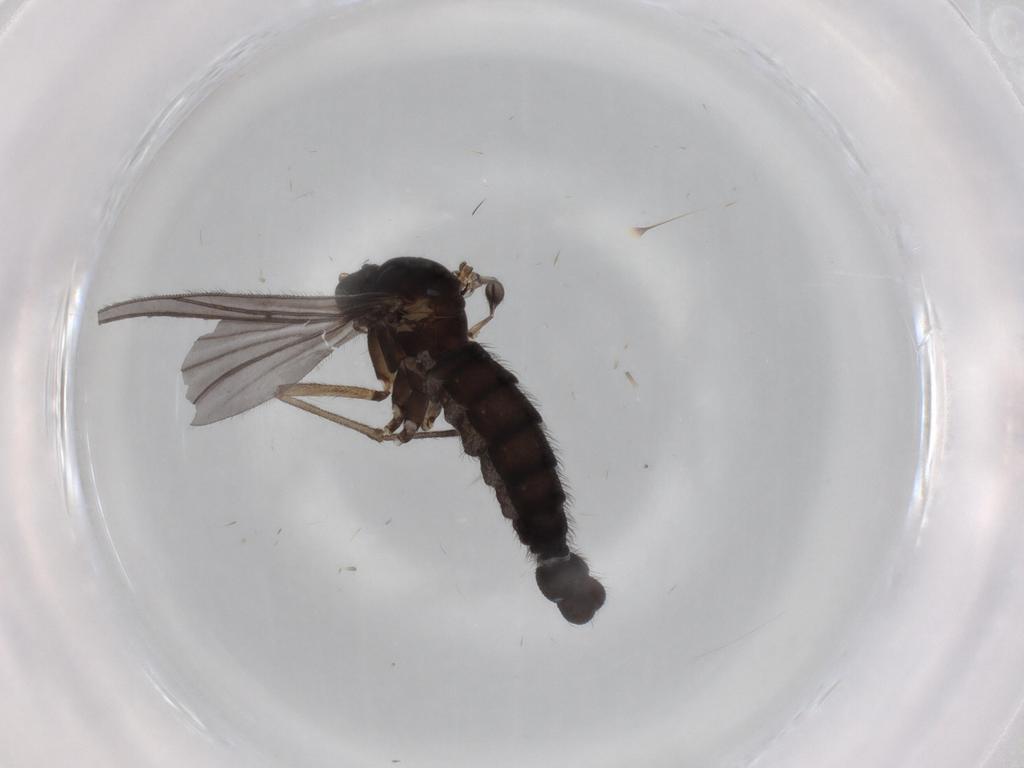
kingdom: Animalia
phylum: Arthropoda
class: Insecta
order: Diptera
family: Sciaridae
